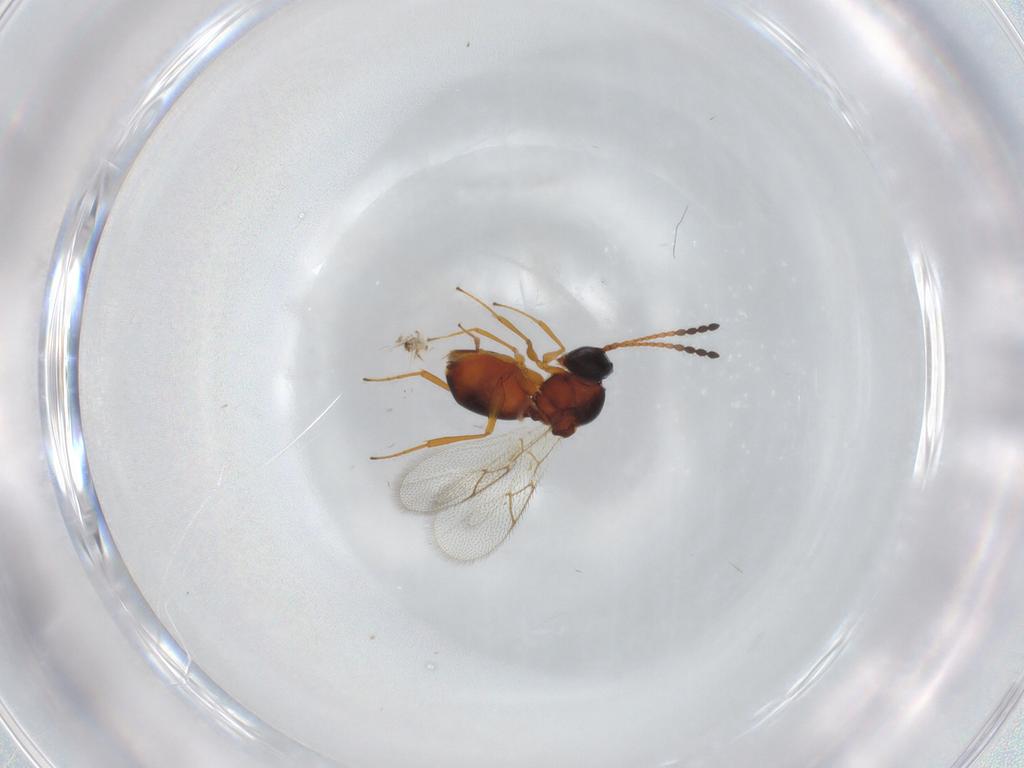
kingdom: Animalia
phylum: Arthropoda
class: Insecta
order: Hymenoptera
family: Figitidae
